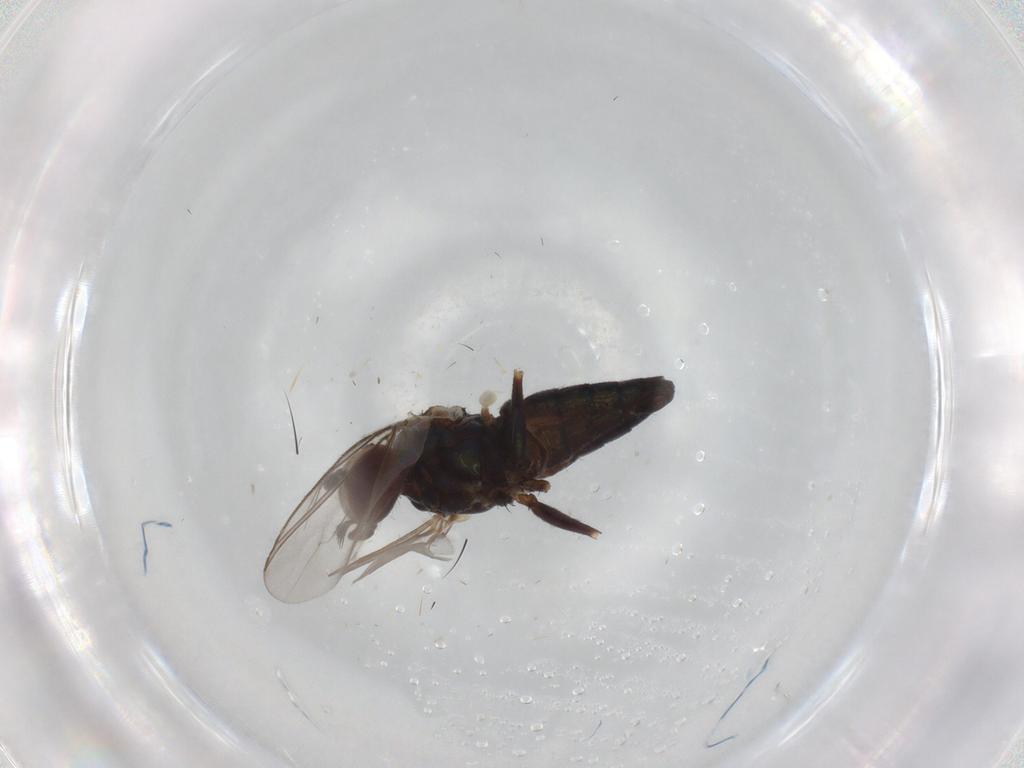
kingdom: Animalia
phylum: Arthropoda
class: Insecta
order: Diptera
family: Dolichopodidae
